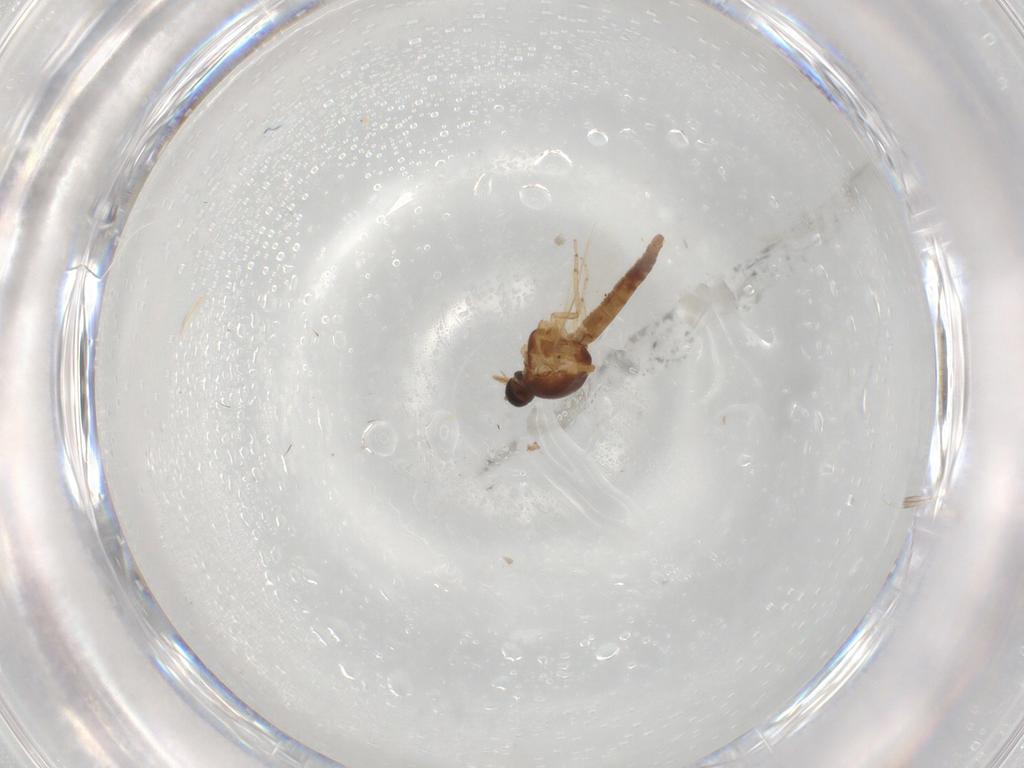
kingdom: Animalia
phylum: Arthropoda
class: Insecta
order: Diptera
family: Ceratopogonidae
